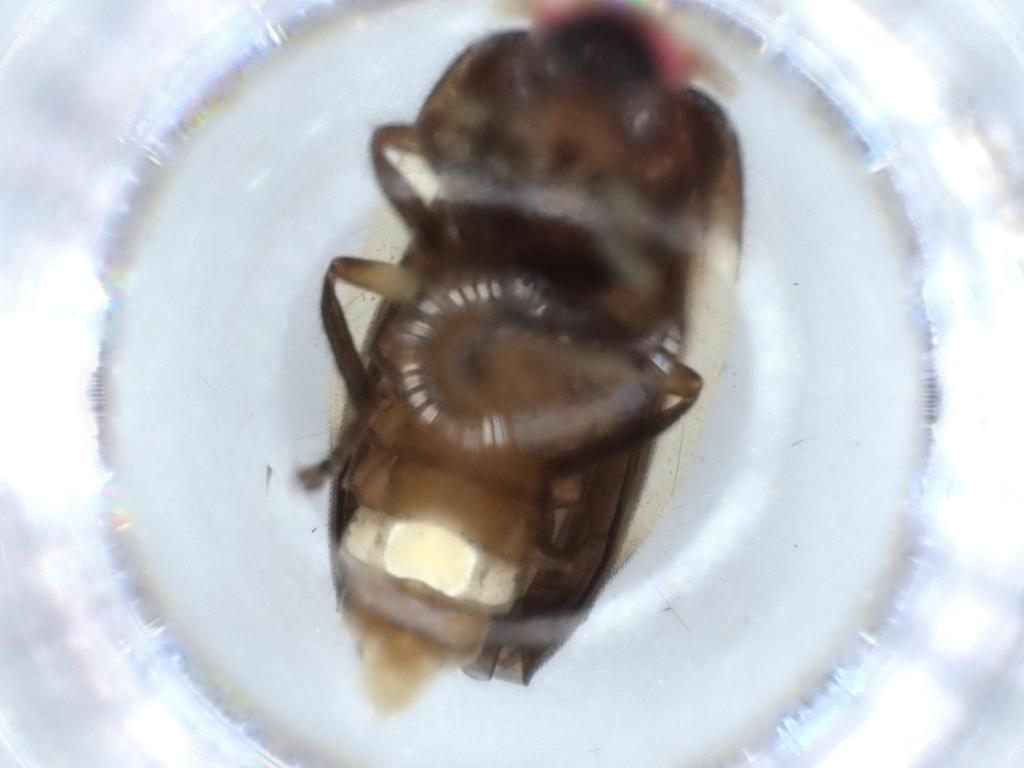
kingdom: Animalia
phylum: Arthropoda
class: Insecta
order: Coleoptera
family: Lampyridae
